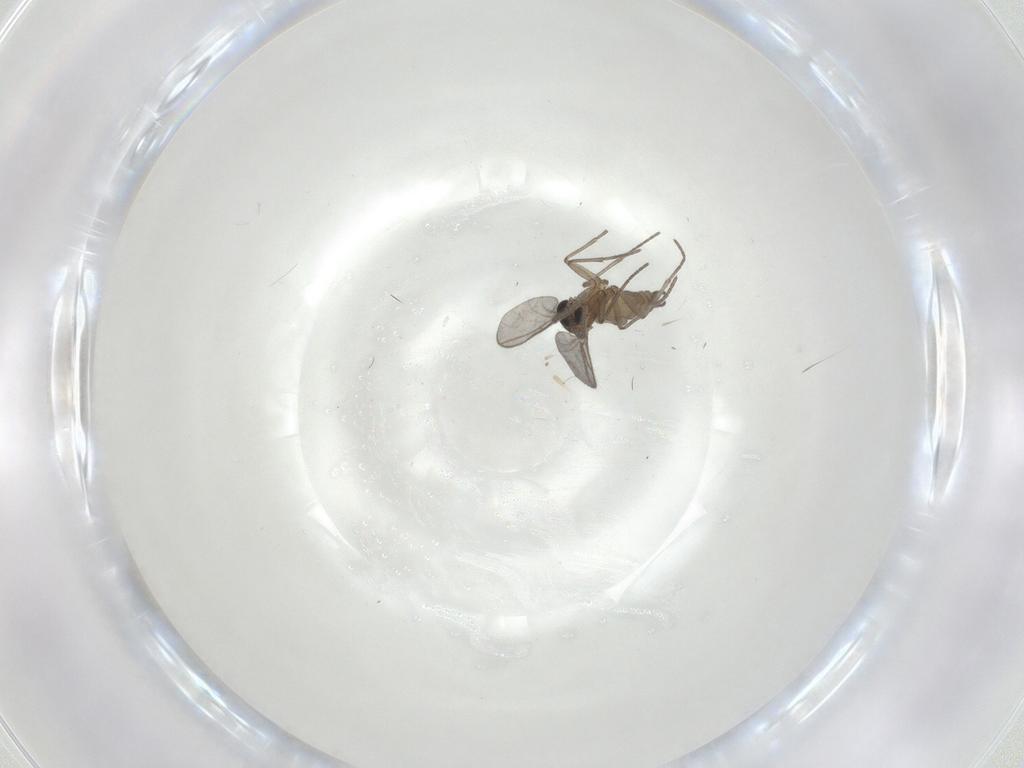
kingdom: Animalia
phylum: Arthropoda
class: Insecta
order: Diptera
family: Sciaridae
